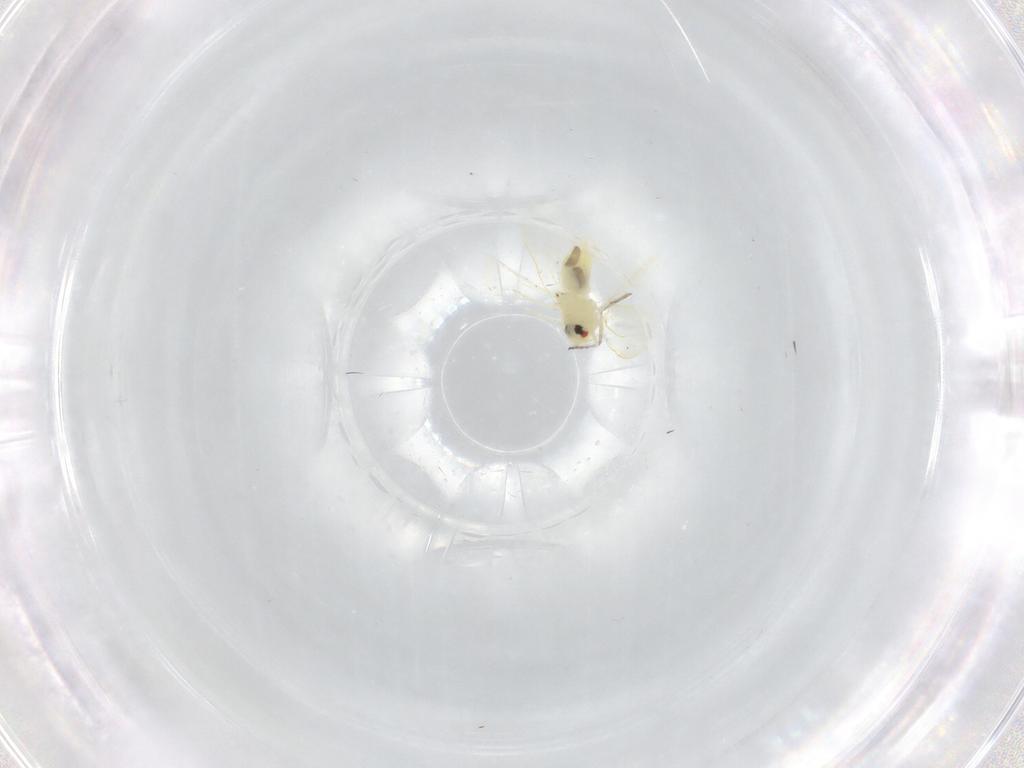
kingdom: Animalia
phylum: Arthropoda
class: Insecta
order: Hemiptera
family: Aleyrodidae
